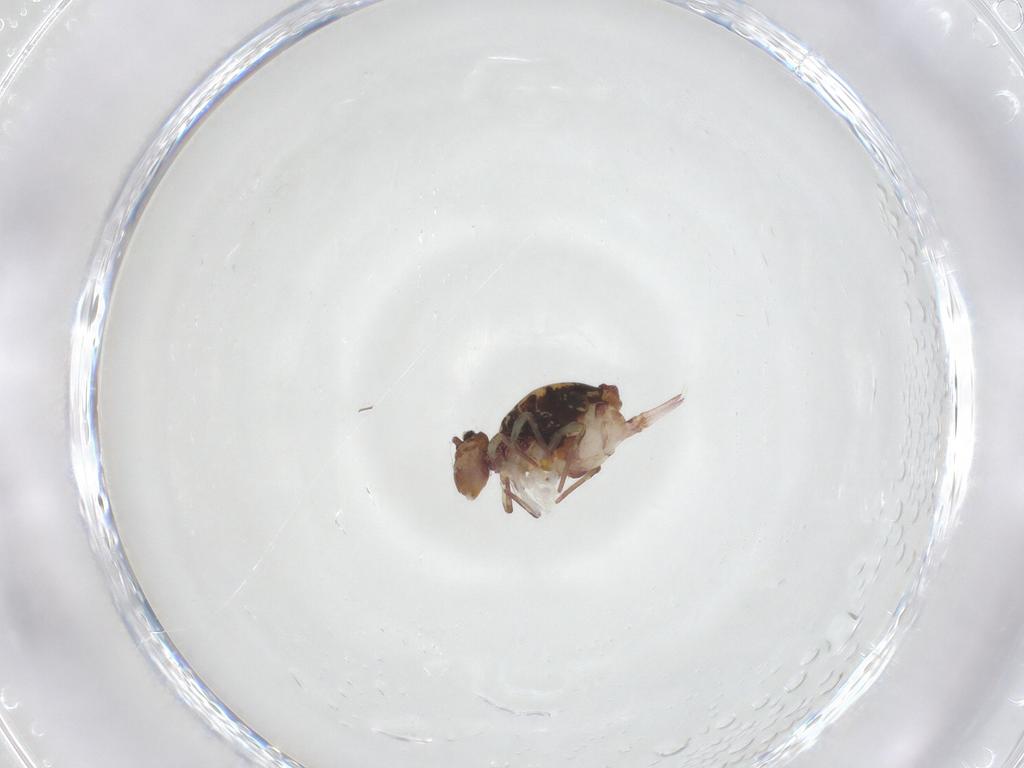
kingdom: Animalia
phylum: Arthropoda
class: Collembola
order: Symphypleona
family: Dicyrtomidae
